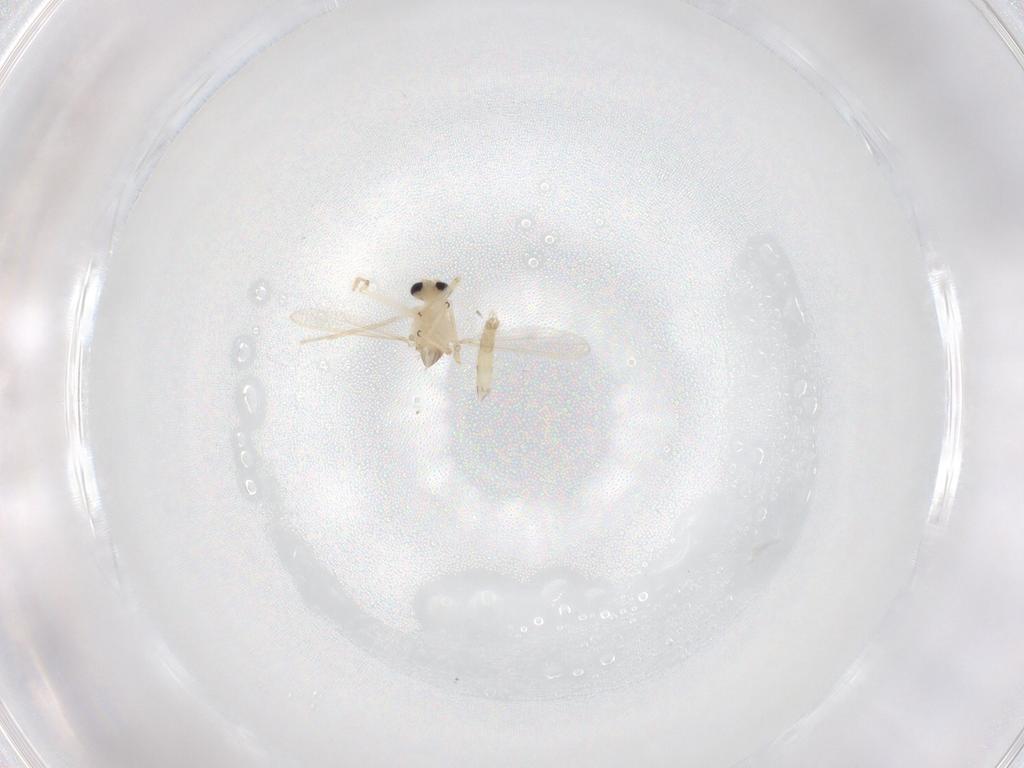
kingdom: Animalia
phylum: Arthropoda
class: Insecta
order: Diptera
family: Chironomidae
